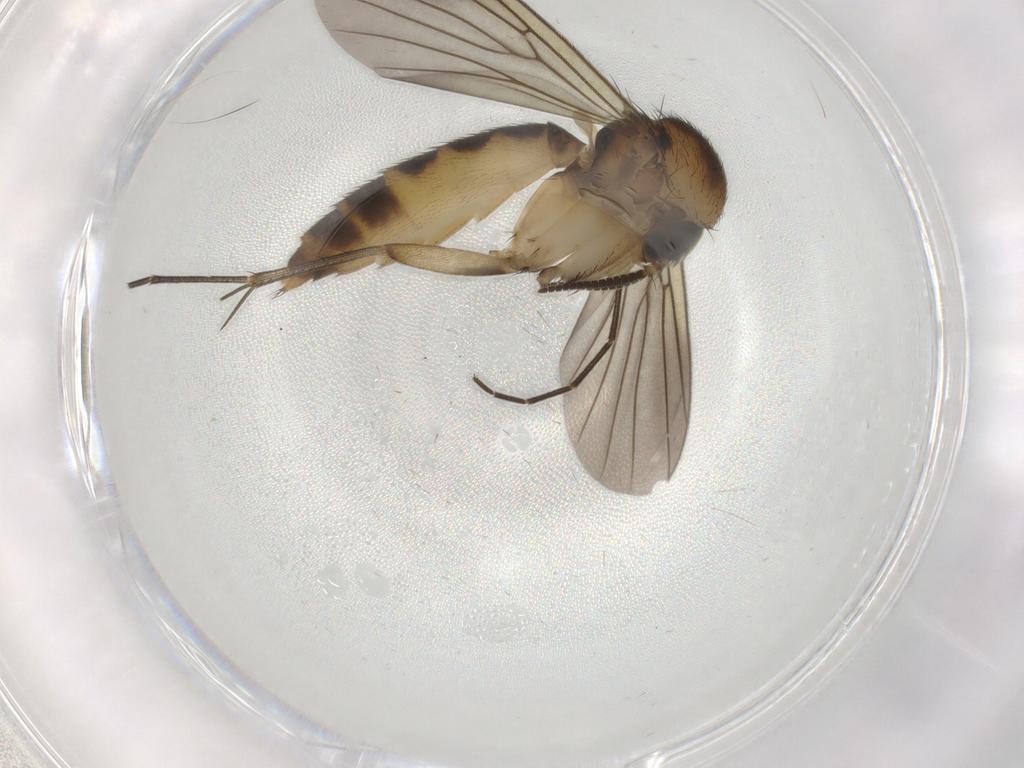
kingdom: Animalia
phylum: Arthropoda
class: Insecta
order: Diptera
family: Mycetophilidae
